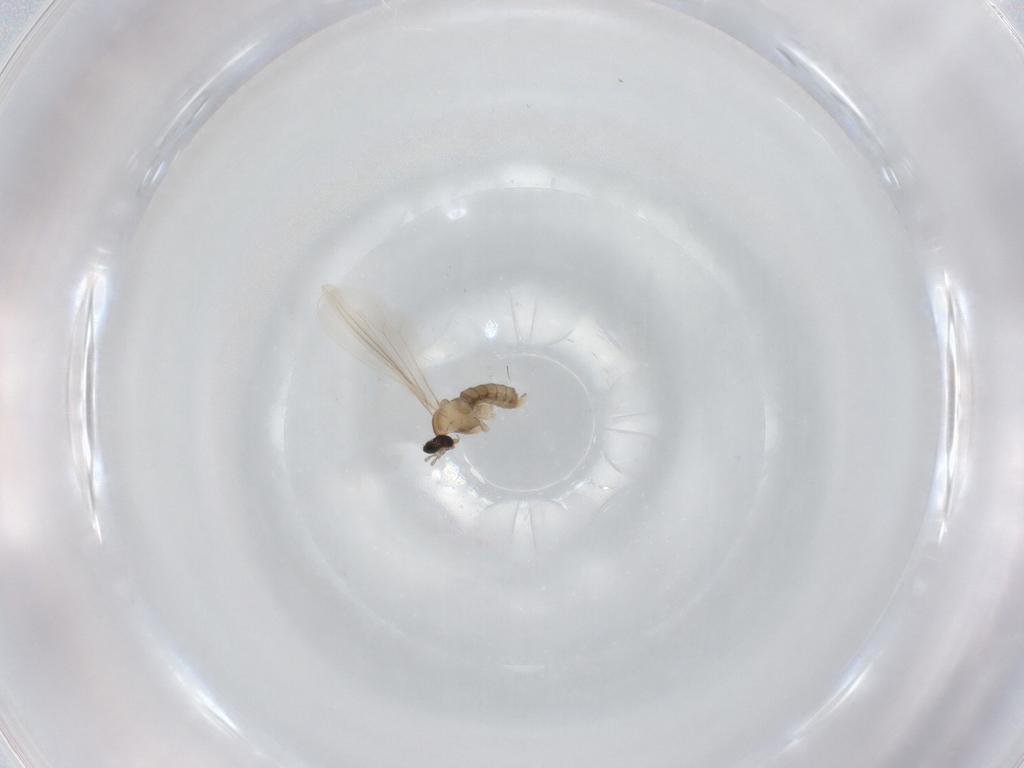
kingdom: Animalia
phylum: Arthropoda
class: Insecta
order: Diptera
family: Cecidomyiidae
